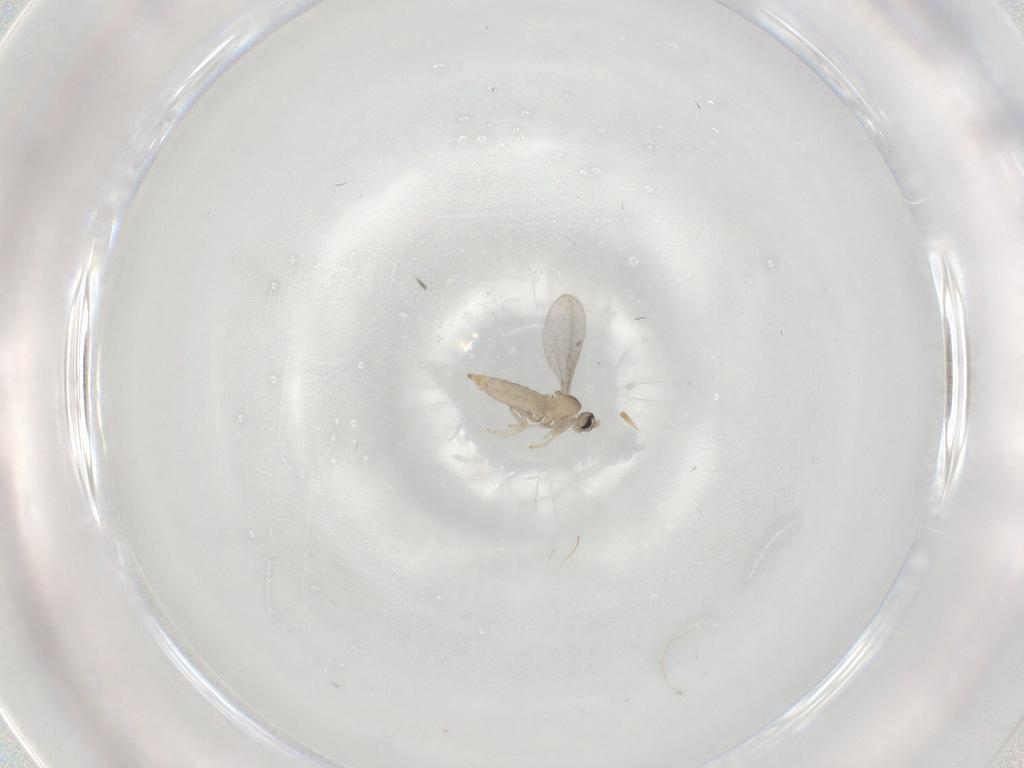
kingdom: Animalia
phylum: Arthropoda
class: Insecta
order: Diptera
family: Cecidomyiidae
